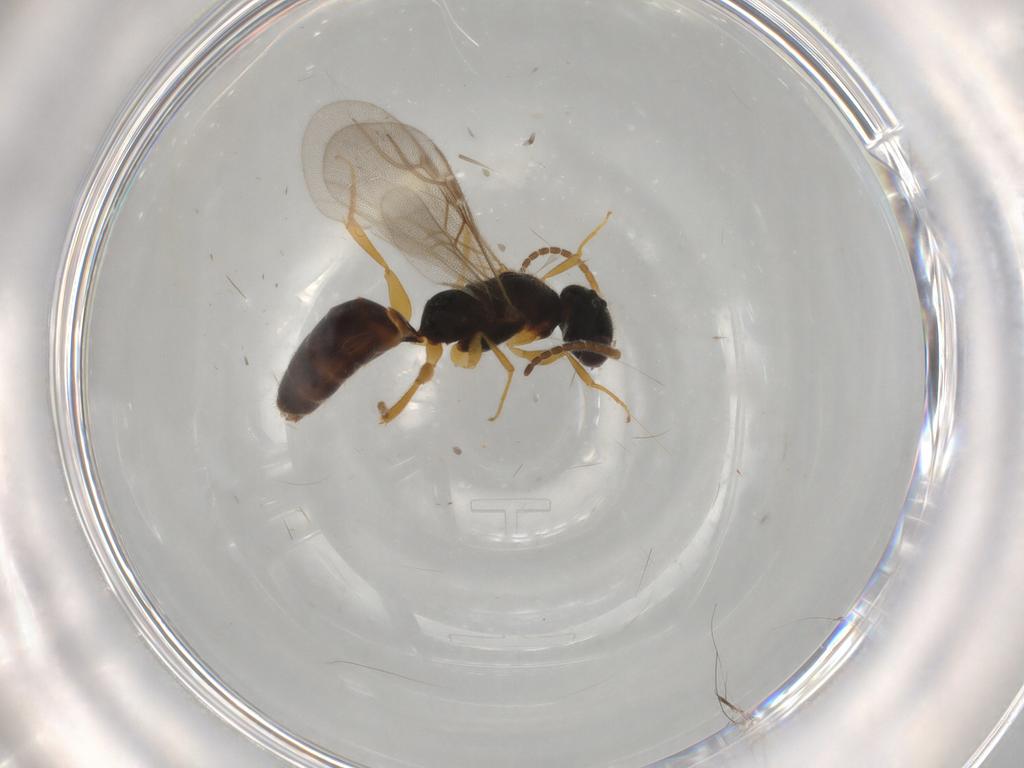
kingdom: Animalia
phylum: Arthropoda
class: Insecta
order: Hymenoptera
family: Bethylidae
